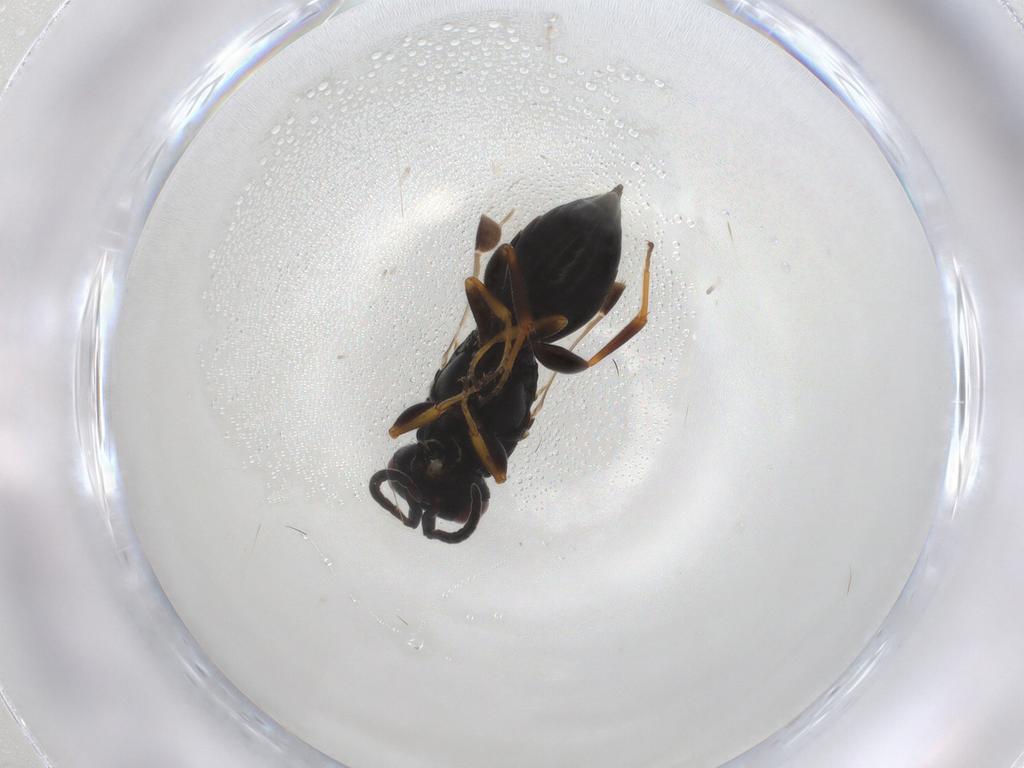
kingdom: Animalia
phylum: Arthropoda
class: Insecta
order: Hymenoptera
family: Megaspilidae
